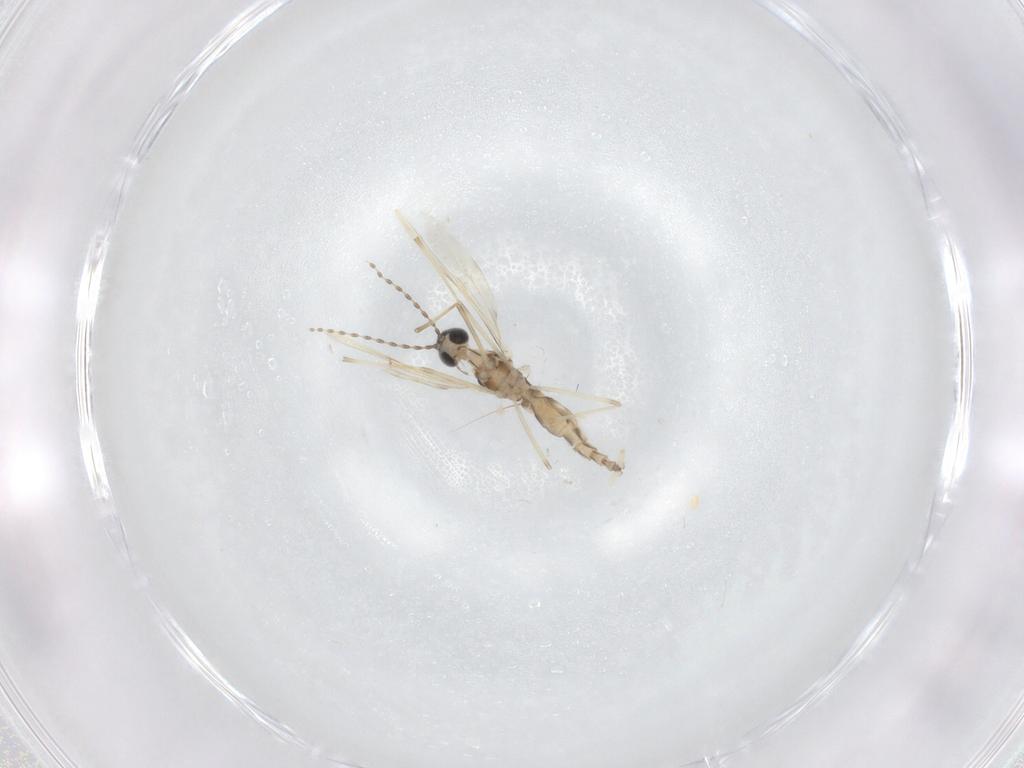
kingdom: Animalia
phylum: Arthropoda
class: Insecta
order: Diptera
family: Cecidomyiidae
